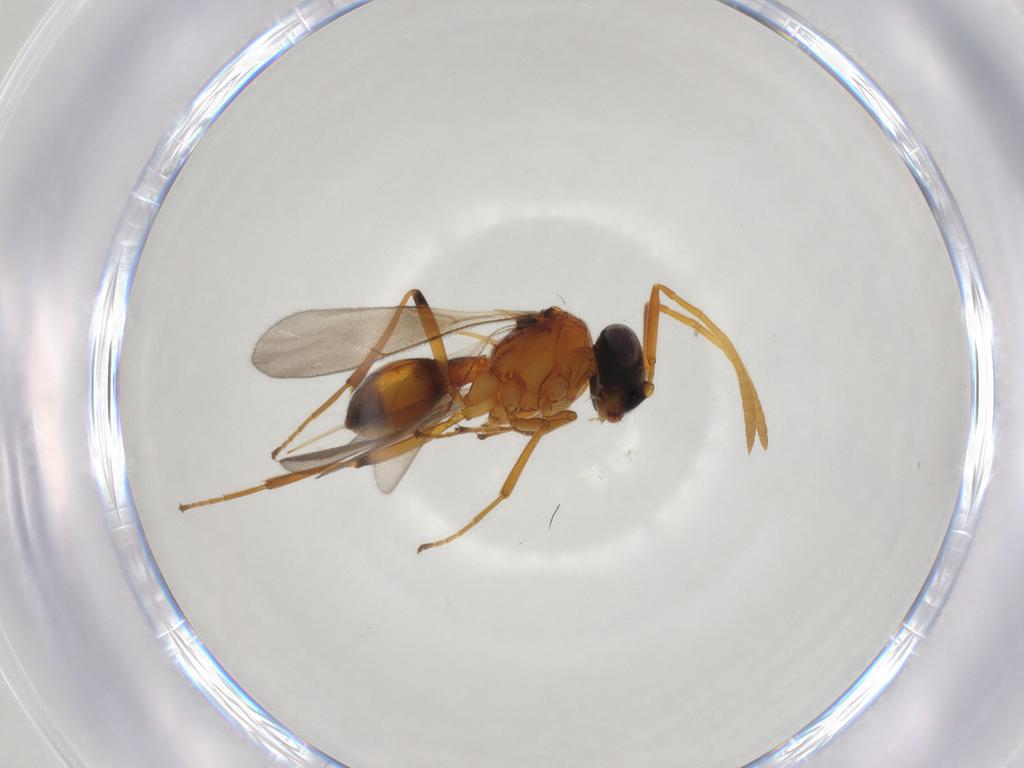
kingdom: Animalia
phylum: Arthropoda
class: Insecta
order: Hymenoptera
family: Scelionidae
